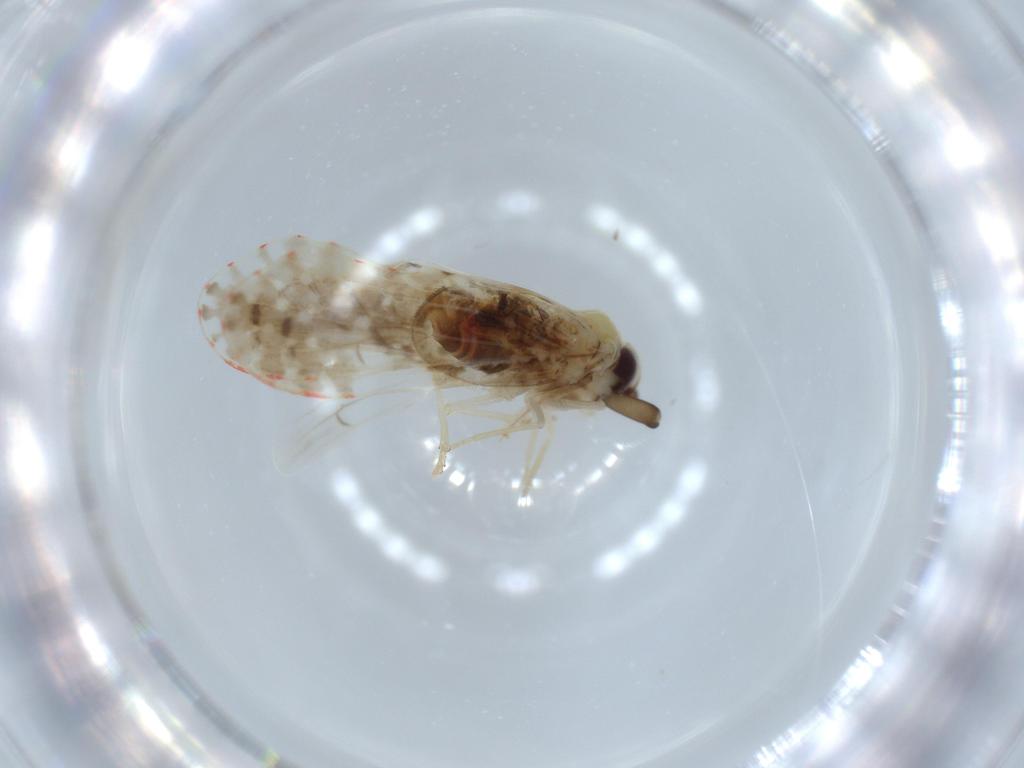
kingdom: Animalia
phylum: Arthropoda
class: Insecta
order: Hemiptera
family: Derbidae
